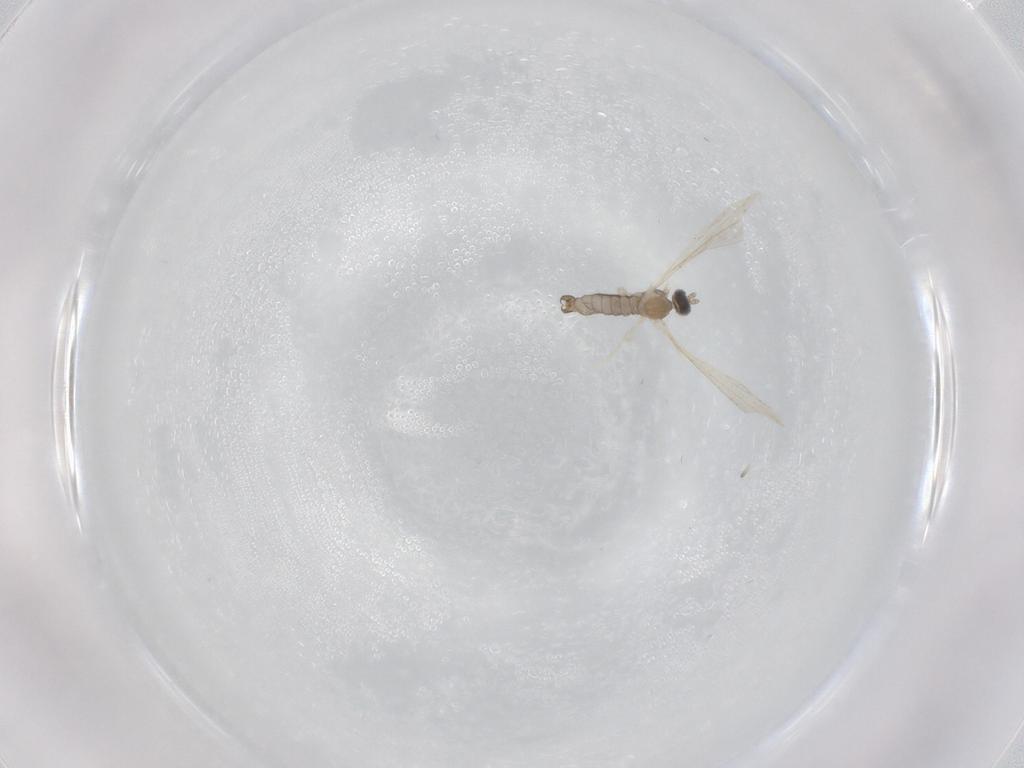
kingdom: Animalia
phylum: Arthropoda
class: Insecta
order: Diptera
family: Cecidomyiidae
